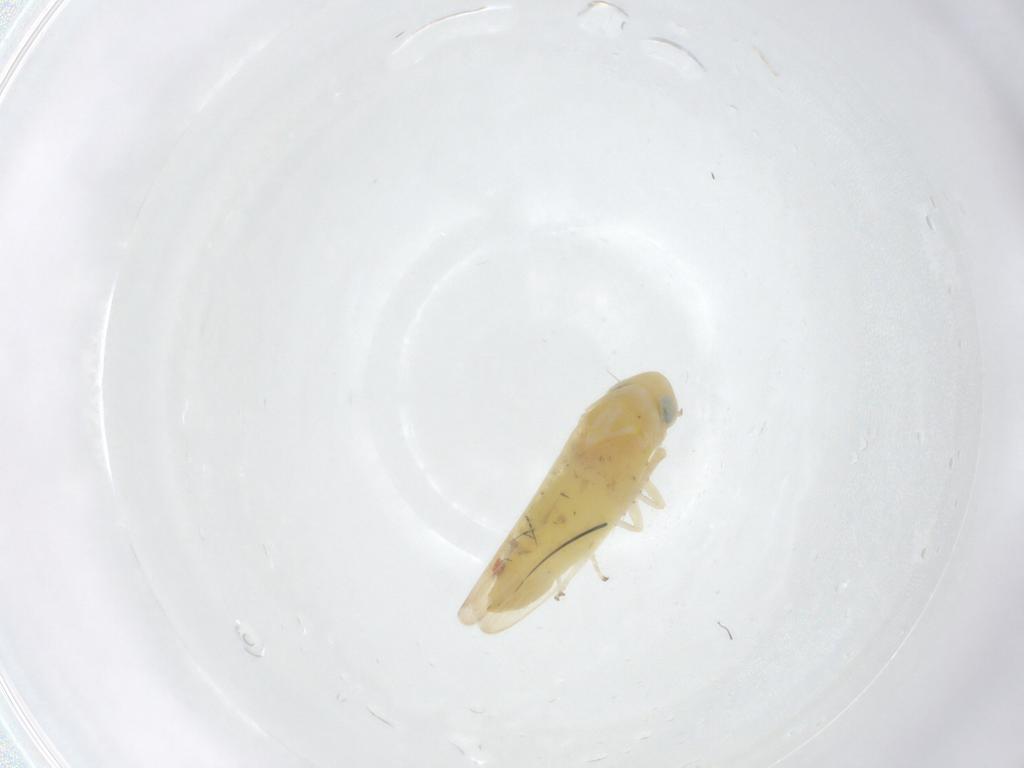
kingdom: Animalia
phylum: Arthropoda
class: Insecta
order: Hemiptera
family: Cicadellidae
